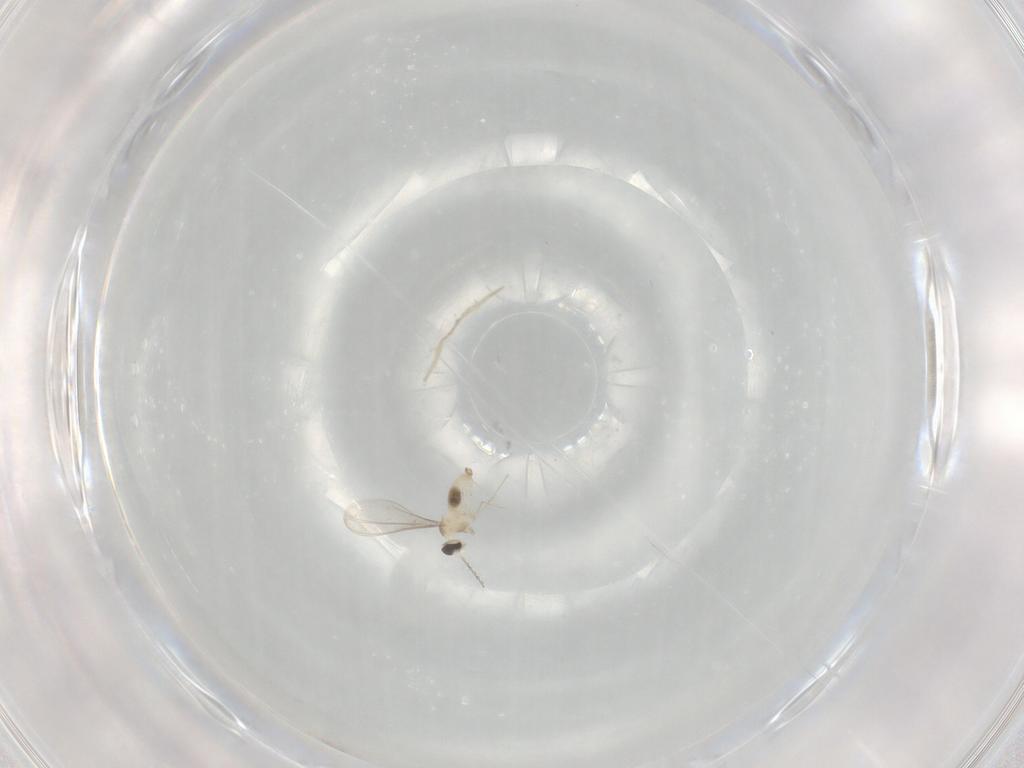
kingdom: Animalia
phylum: Arthropoda
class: Insecta
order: Diptera
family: Cecidomyiidae
